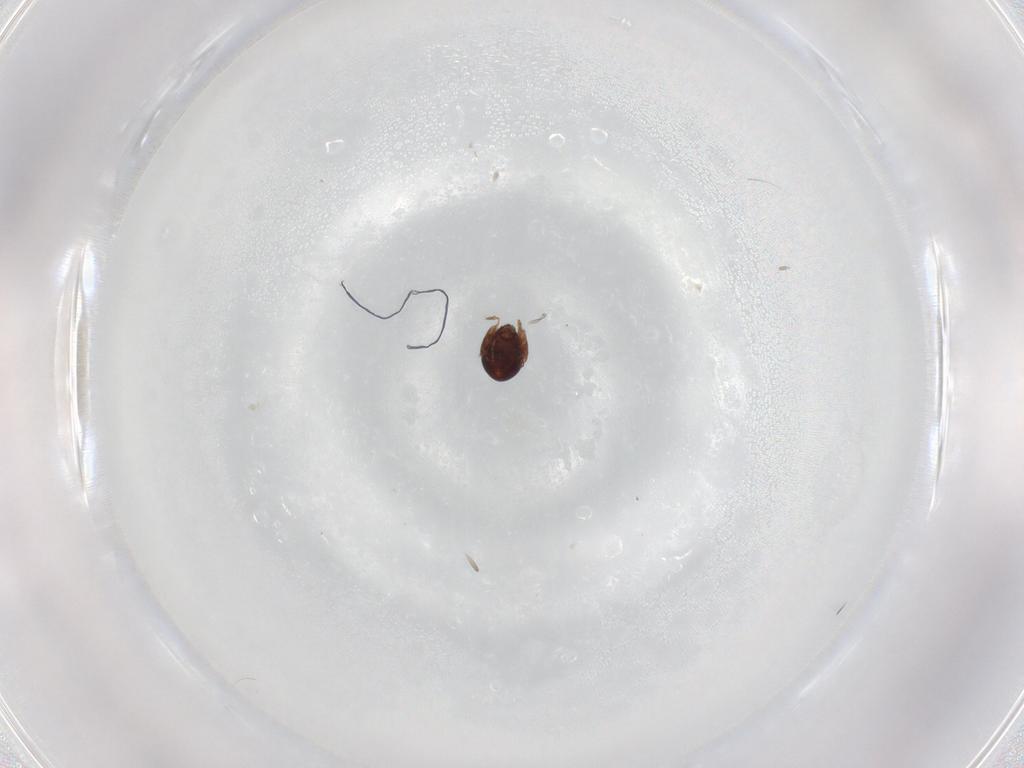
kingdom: Animalia
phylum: Arthropoda
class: Arachnida
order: Sarcoptiformes
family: Galumnidae
